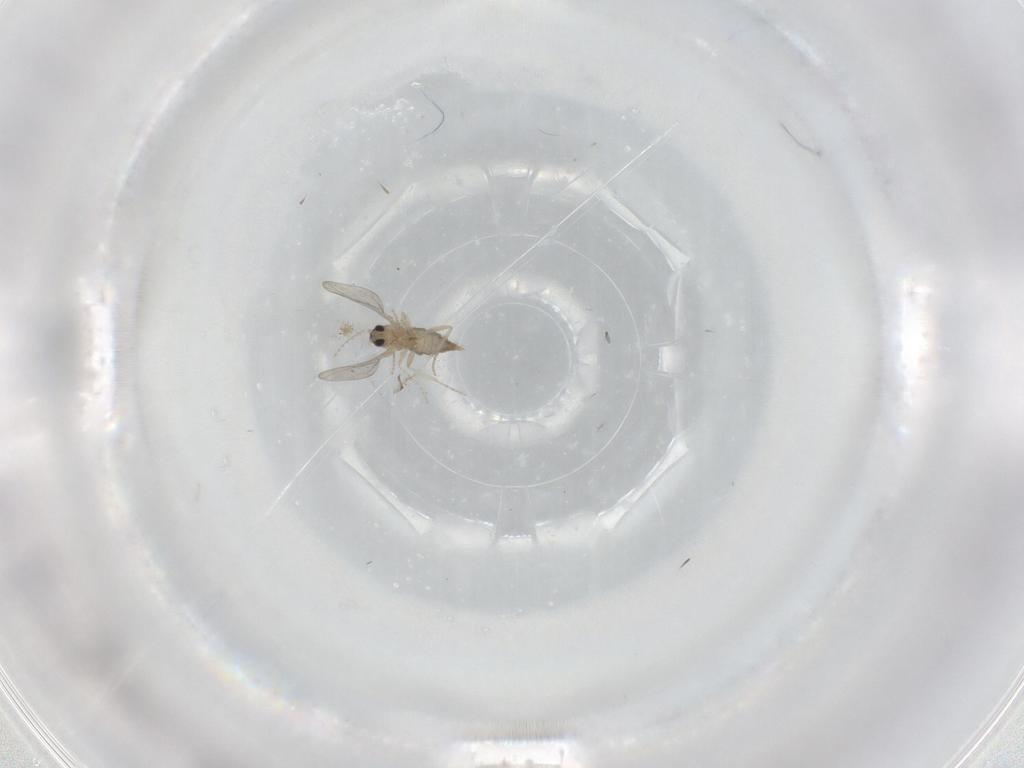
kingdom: Animalia
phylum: Arthropoda
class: Insecta
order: Diptera
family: Cecidomyiidae
